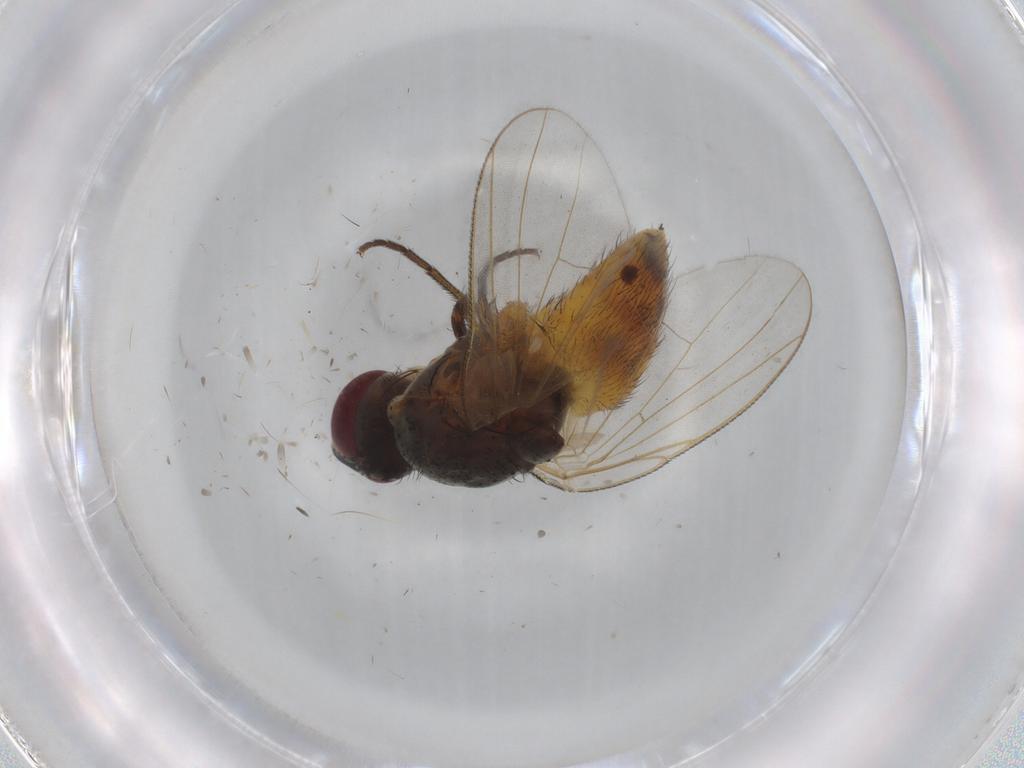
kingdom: Animalia
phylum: Arthropoda
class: Insecta
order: Diptera
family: Muscidae
